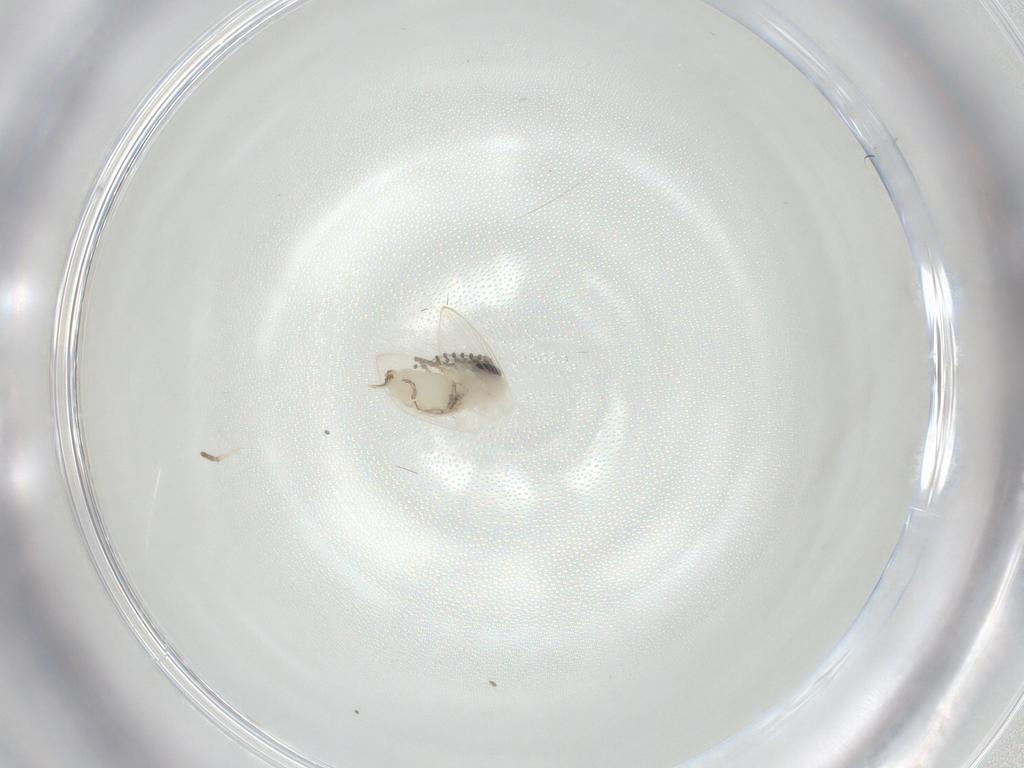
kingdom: Animalia
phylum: Arthropoda
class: Insecta
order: Diptera
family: Psychodidae
